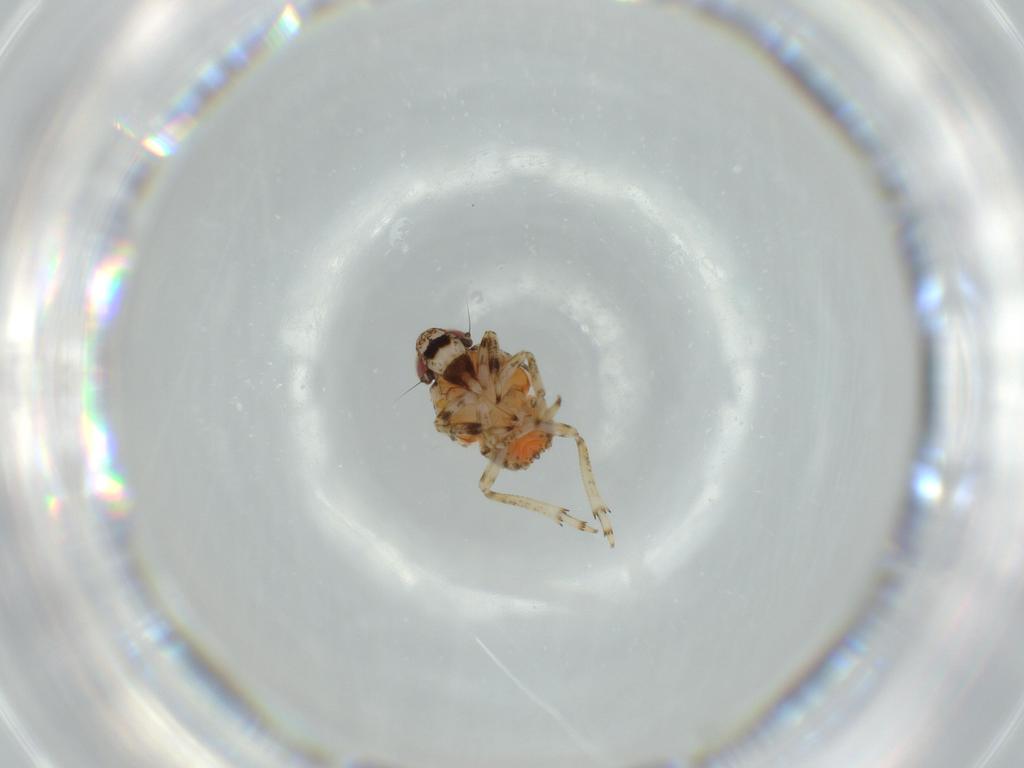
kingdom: Animalia
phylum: Arthropoda
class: Insecta
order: Hemiptera
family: Issidae
